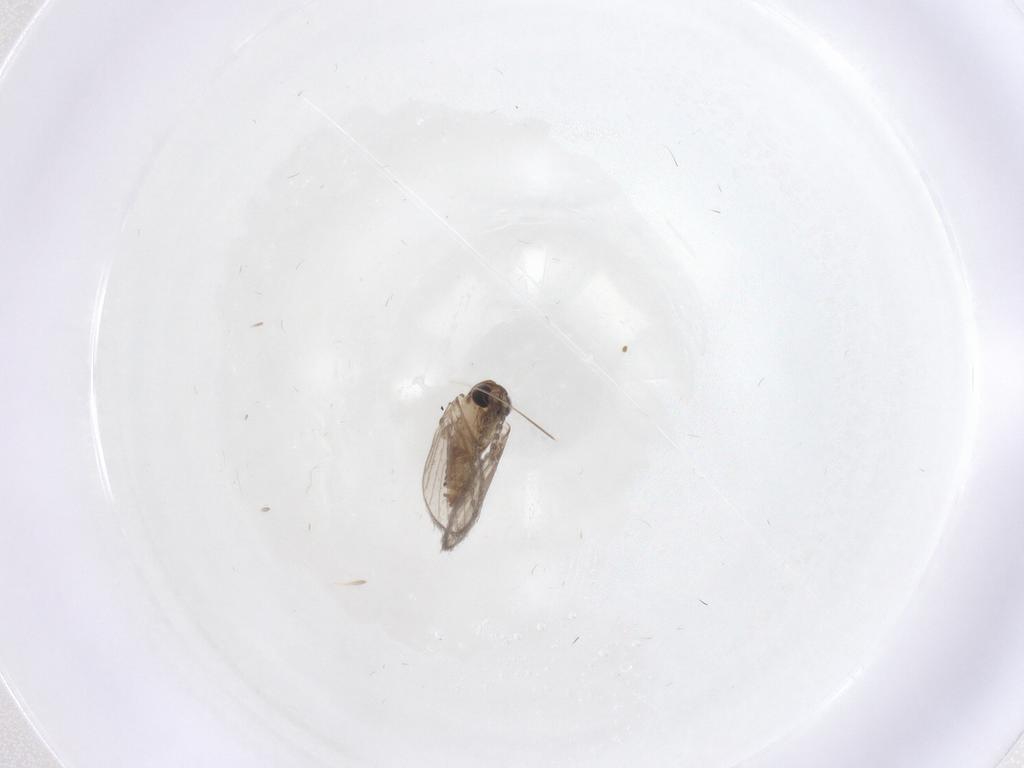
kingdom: Animalia
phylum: Arthropoda
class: Insecta
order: Diptera
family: Psychodidae
